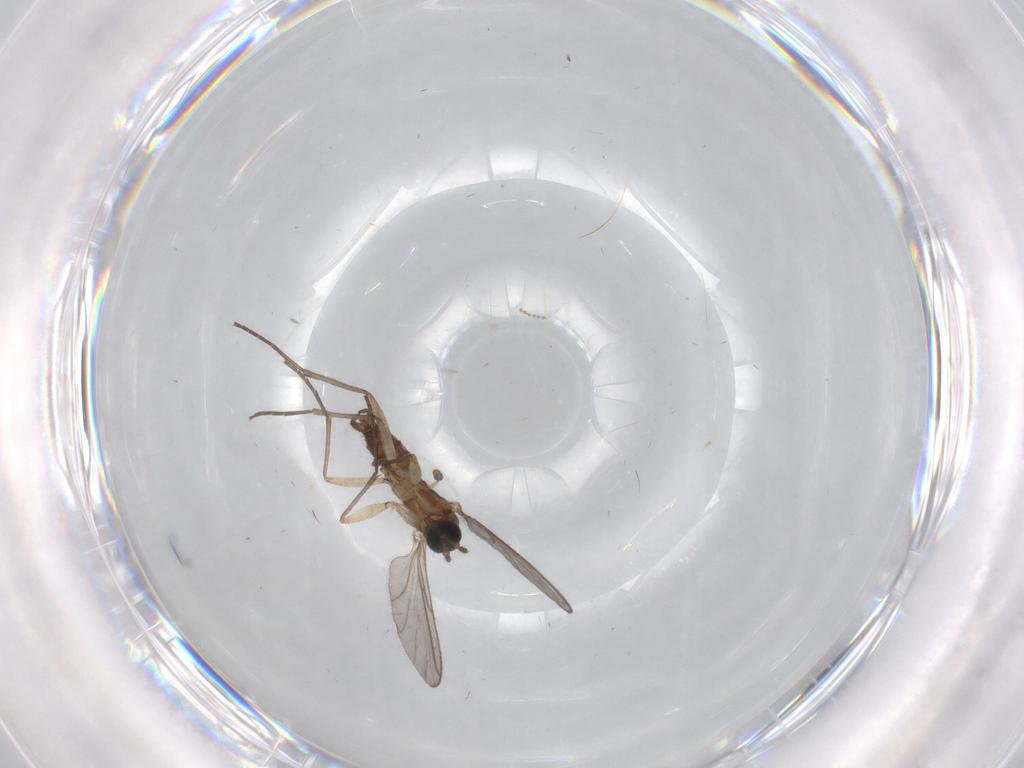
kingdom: Animalia
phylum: Arthropoda
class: Insecta
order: Diptera
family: Sciaridae
